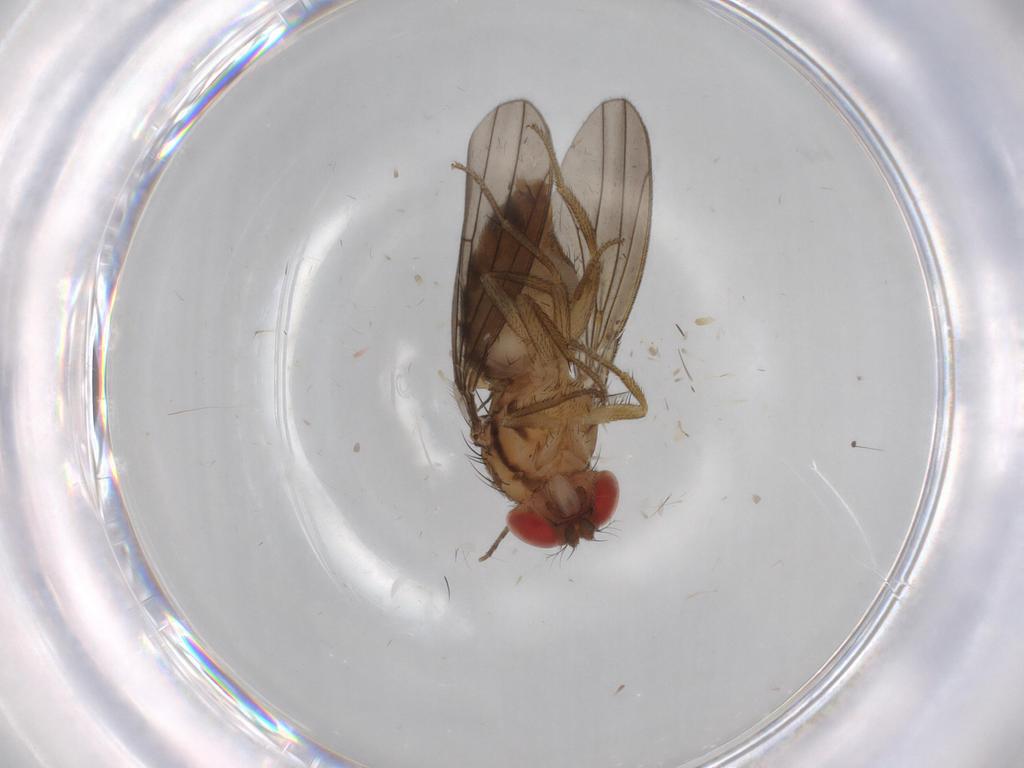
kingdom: Animalia
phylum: Arthropoda
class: Insecta
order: Diptera
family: Drosophilidae
